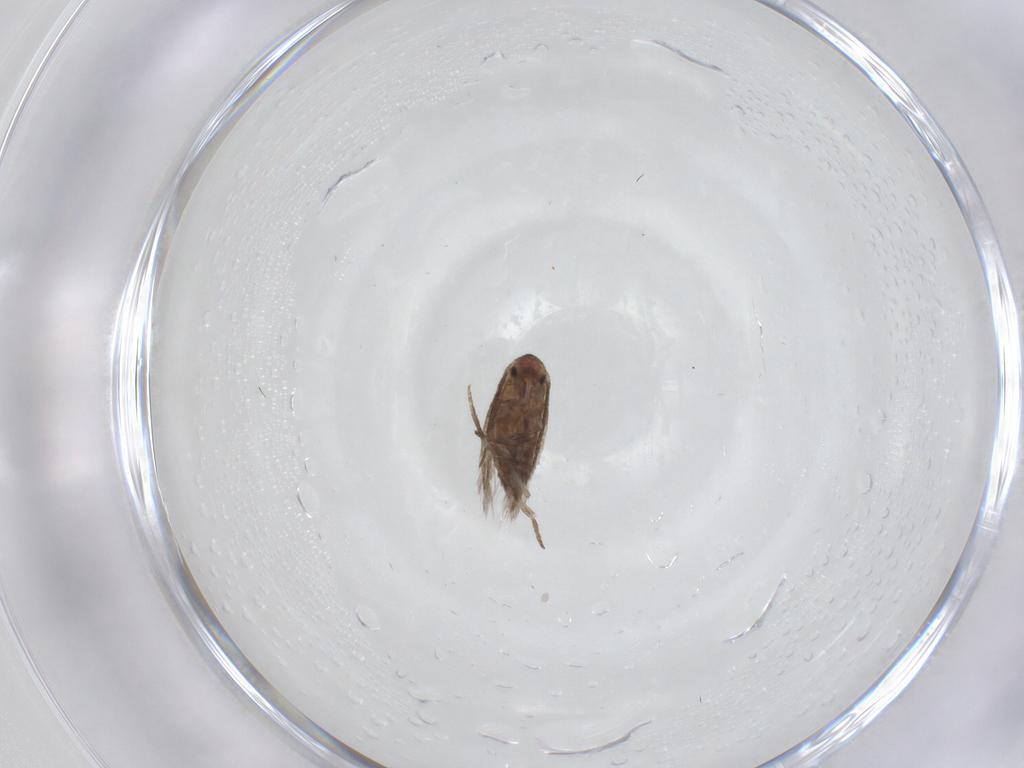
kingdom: Animalia
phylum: Arthropoda
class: Insecta
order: Lepidoptera
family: Lyonetiidae
